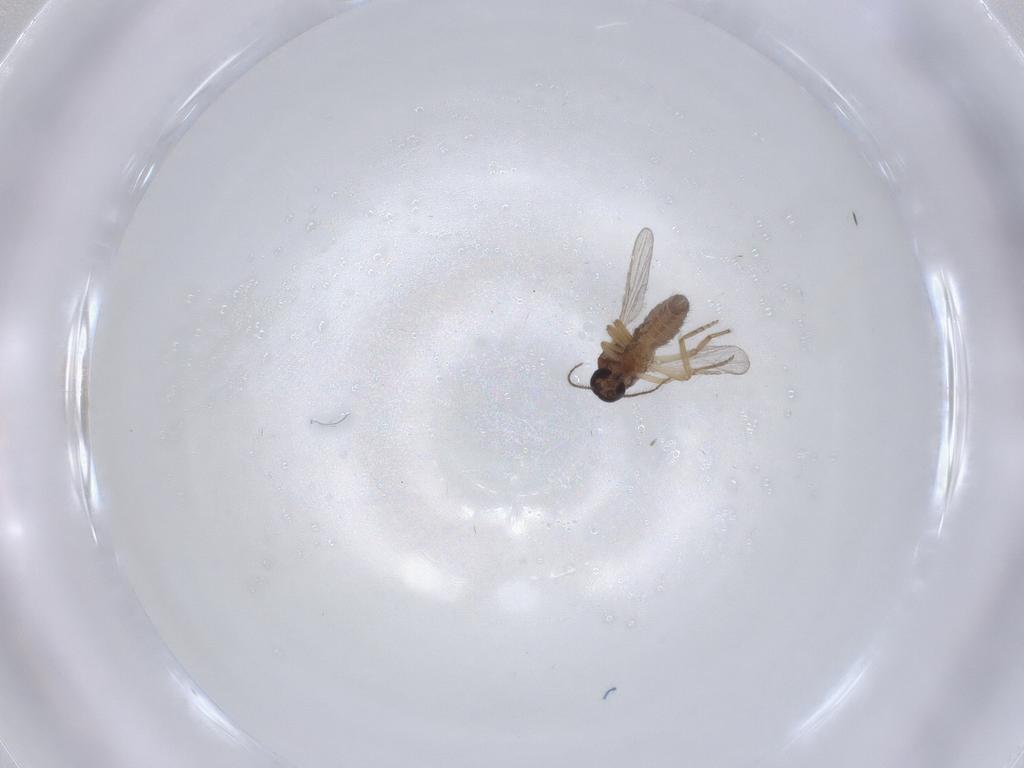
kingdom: Animalia
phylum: Arthropoda
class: Insecta
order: Diptera
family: Ceratopogonidae
